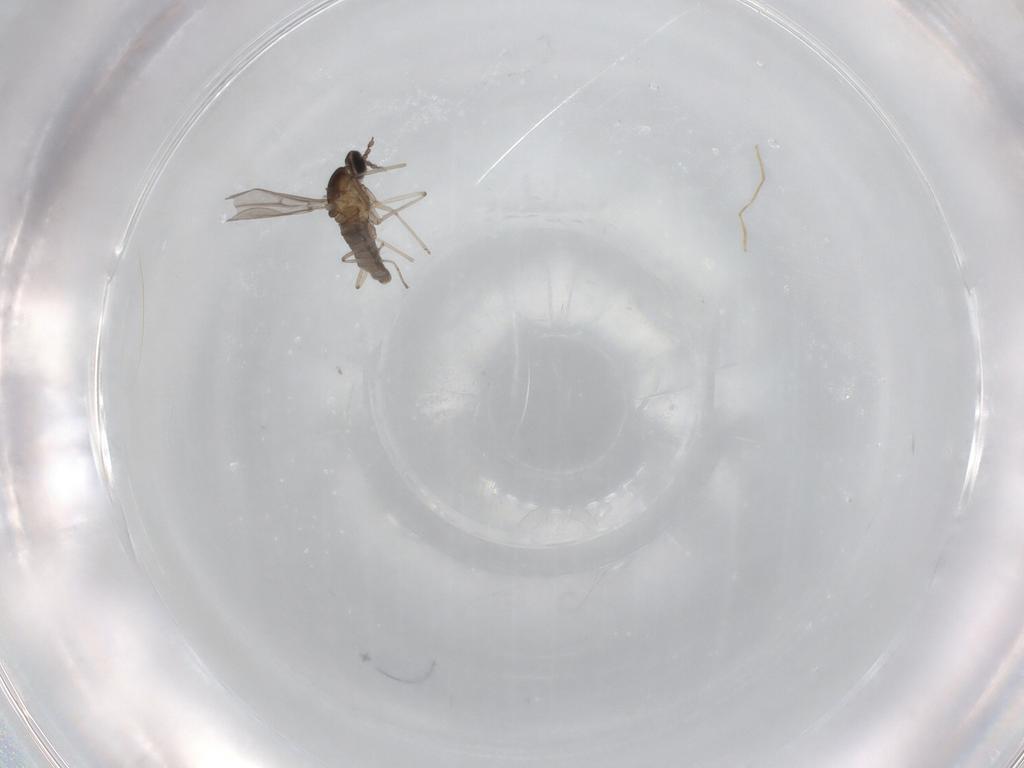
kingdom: Animalia
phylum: Arthropoda
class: Insecta
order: Diptera
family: Cecidomyiidae
